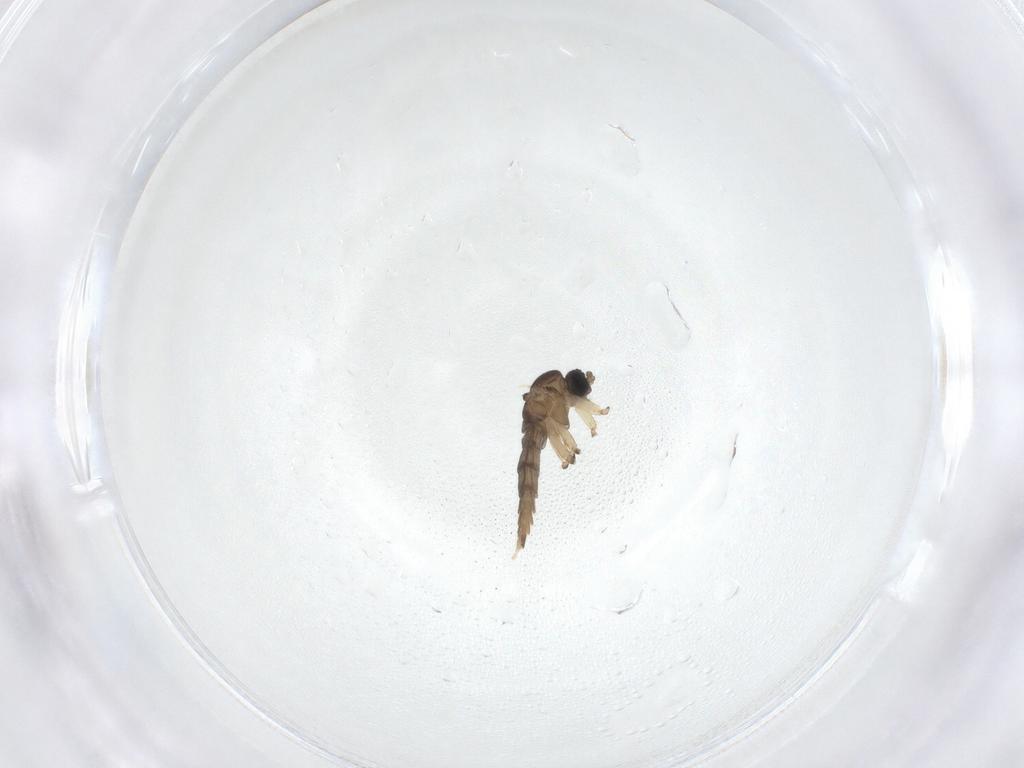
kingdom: Animalia
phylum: Arthropoda
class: Insecta
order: Diptera
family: Sciaridae
